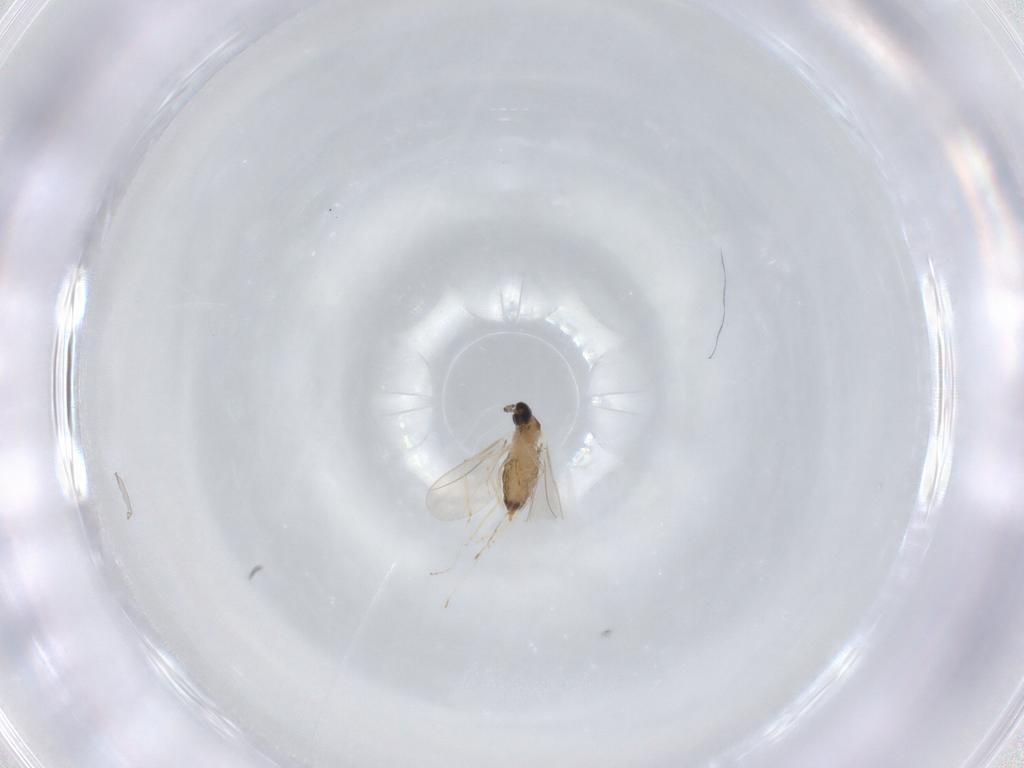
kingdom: Animalia
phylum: Arthropoda
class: Insecta
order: Diptera
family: Cecidomyiidae
